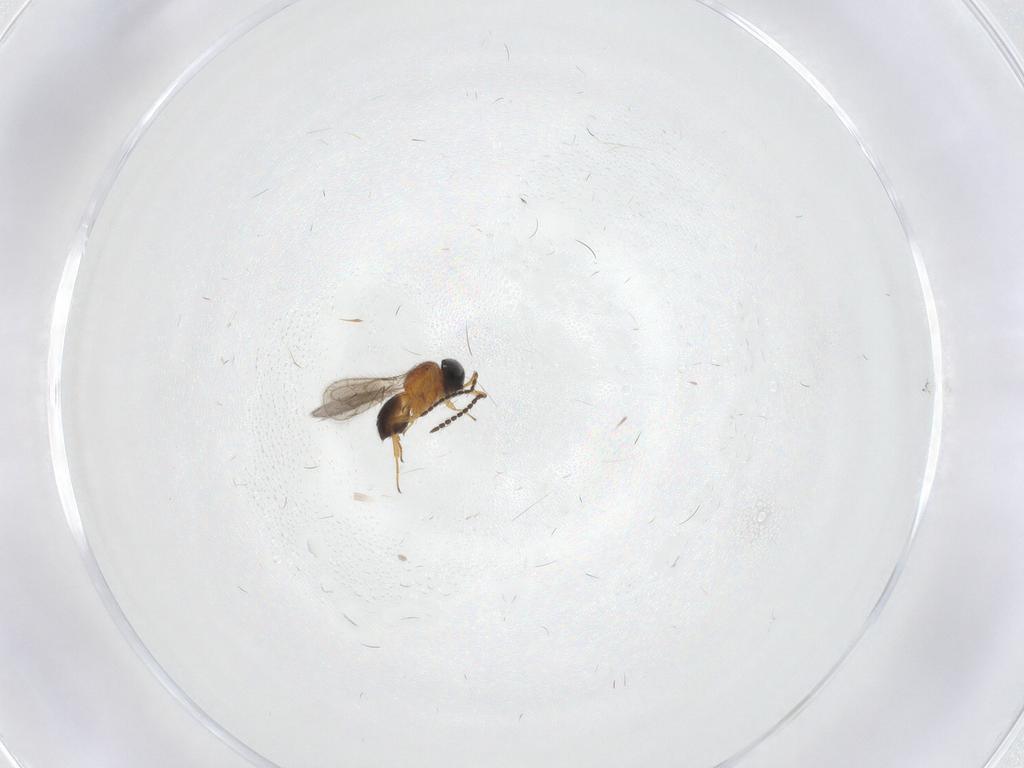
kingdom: Animalia
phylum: Arthropoda
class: Insecta
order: Hymenoptera
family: Scelionidae
